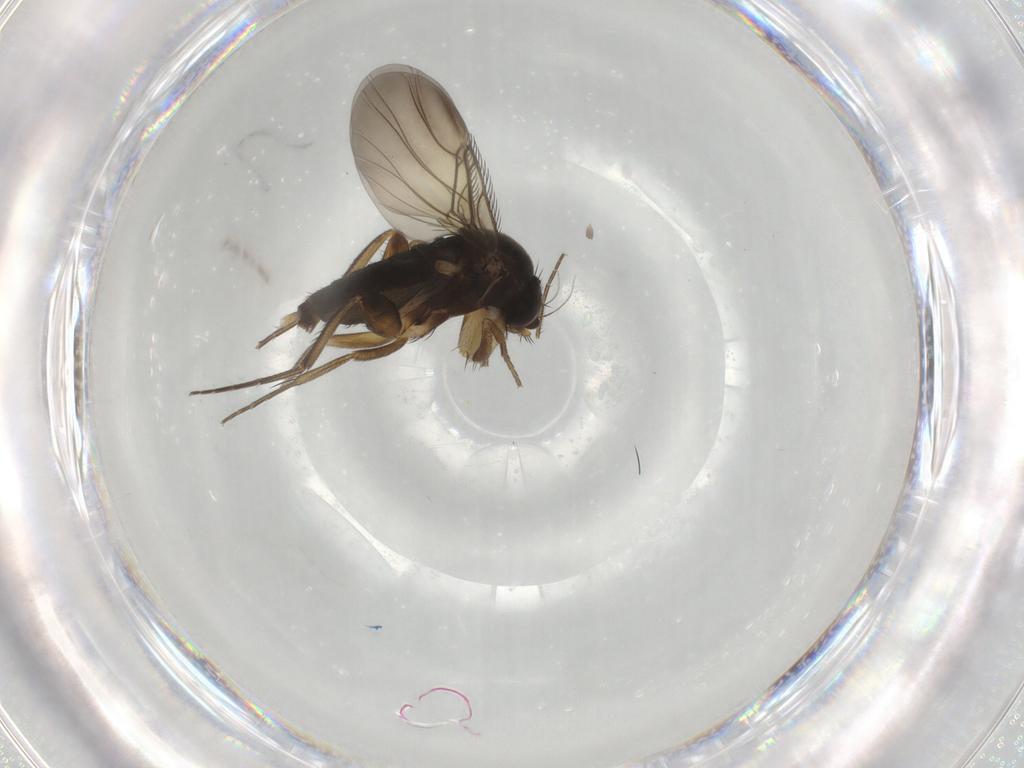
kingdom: Animalia
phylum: Arthropoda
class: Insecta
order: Diptera
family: Phoridae
